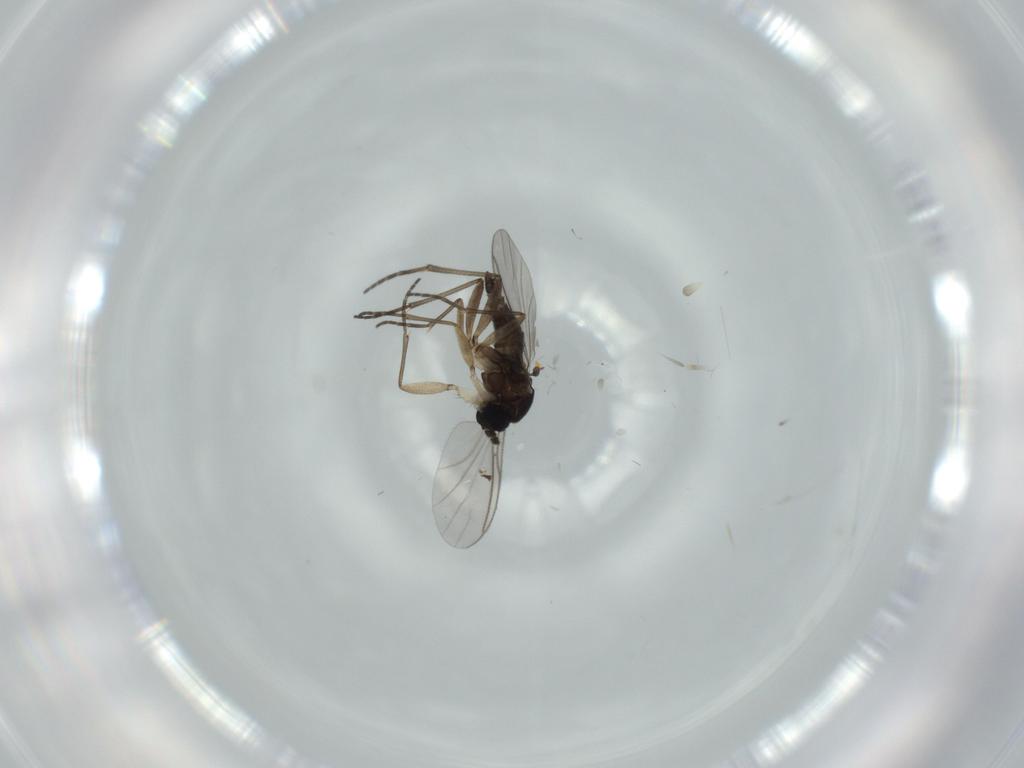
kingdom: Animalia
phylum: Arthropoda
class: Insecta
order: Diptera
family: Sciaridae
